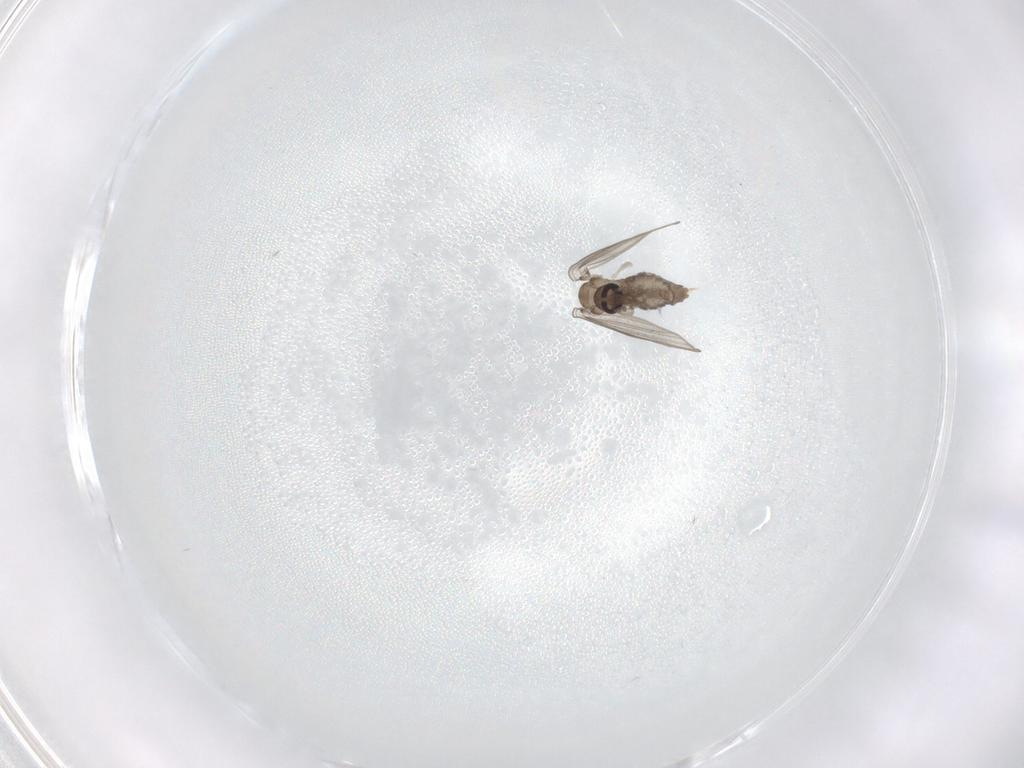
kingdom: Animalia
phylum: Arthropoda
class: Insecta
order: Diptera
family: Psychodidae
